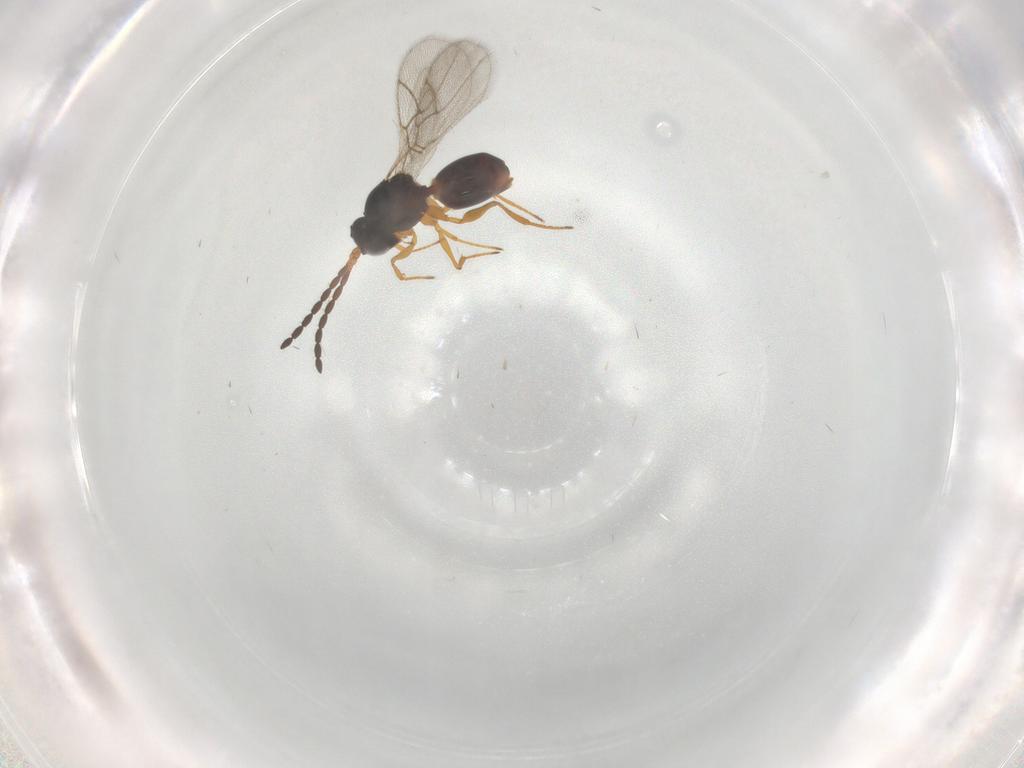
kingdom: Animalia
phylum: Arthropoda
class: Insecta
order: Hymenoptera
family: Figitidae
